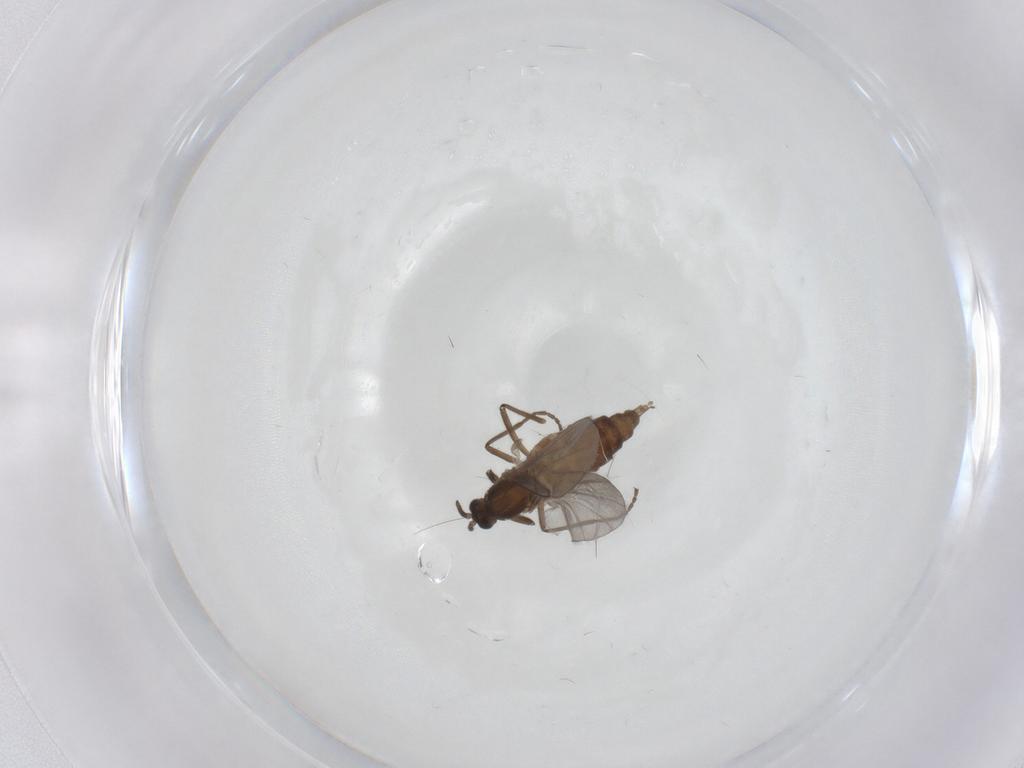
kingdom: Animalia
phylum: Arthropoda
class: Insecta
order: Diptera
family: Cecidomyiidae
